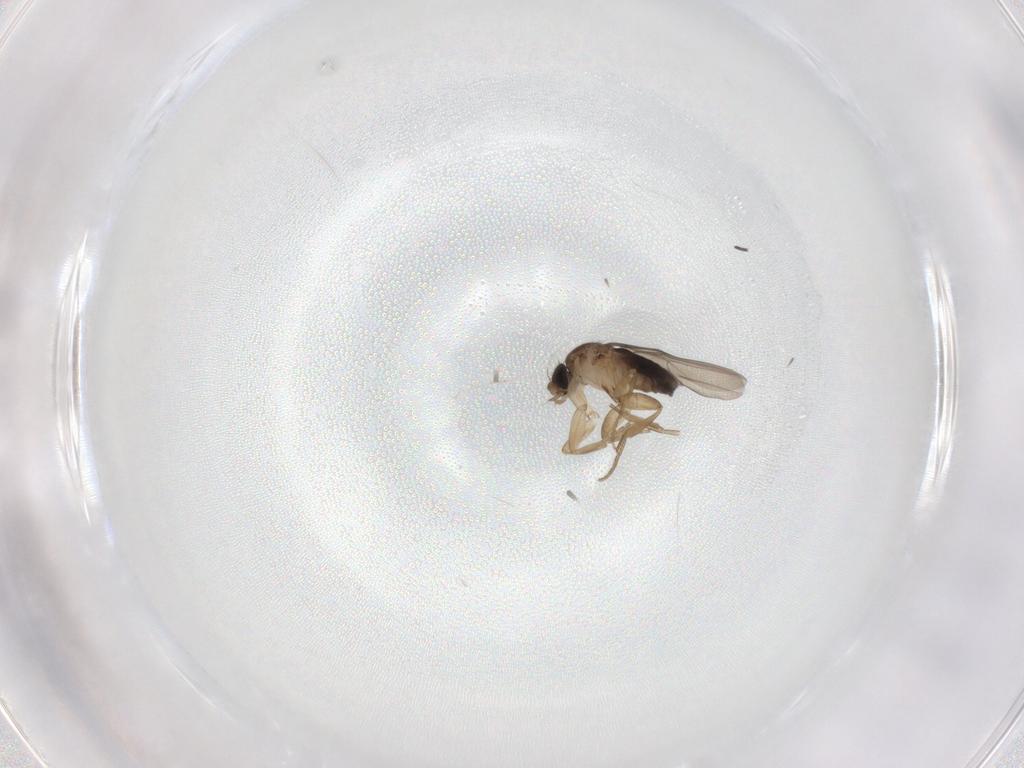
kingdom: Animalia
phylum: Arthropoda
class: Insecta
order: Diptera
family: Phoridae
